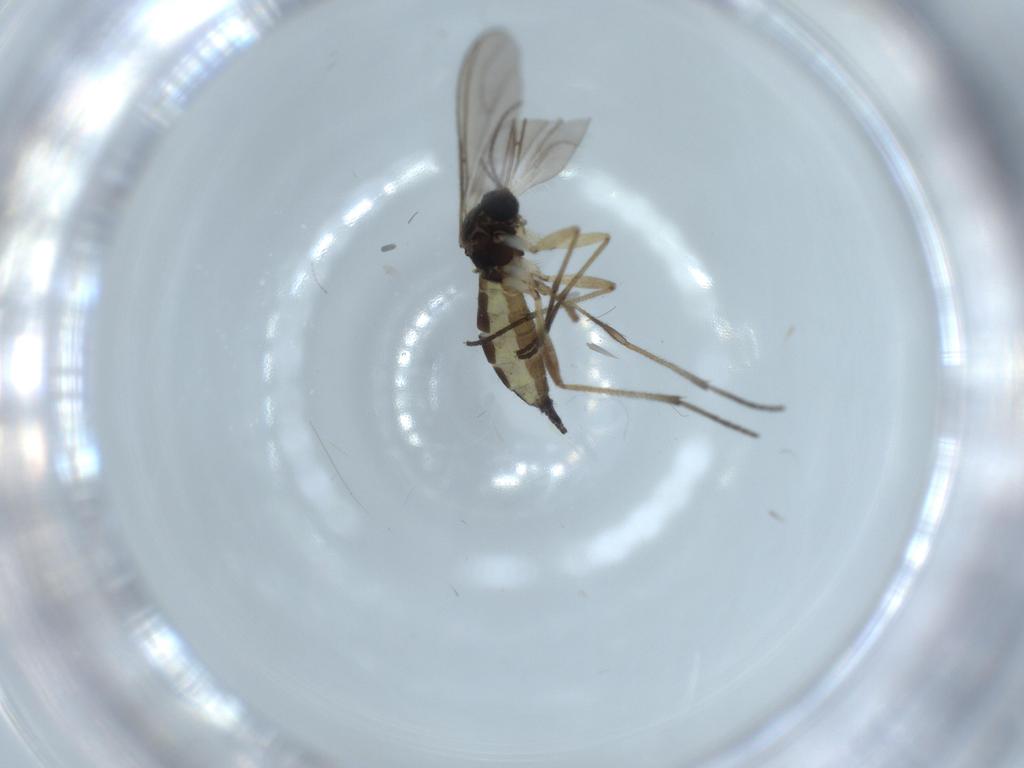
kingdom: Animalia
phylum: Arthropoda
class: Insecta
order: Diptera
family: Sciaridae
